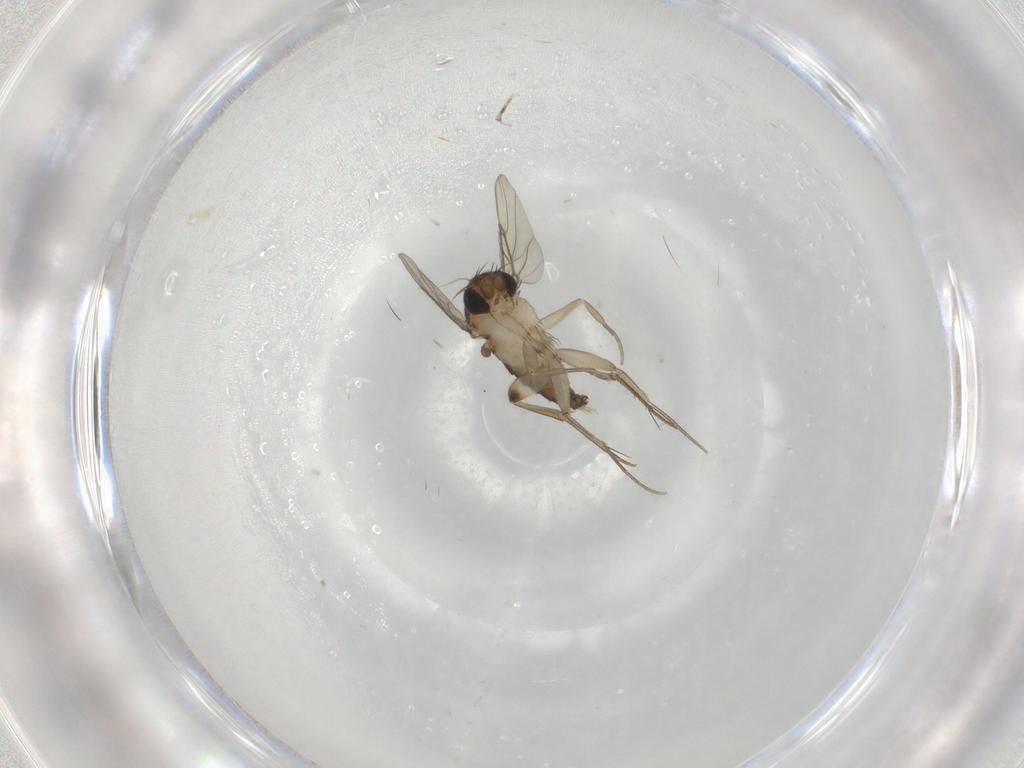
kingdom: Animalia
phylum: Arthropoda
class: Insecta
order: Diptera
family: Phoridae
